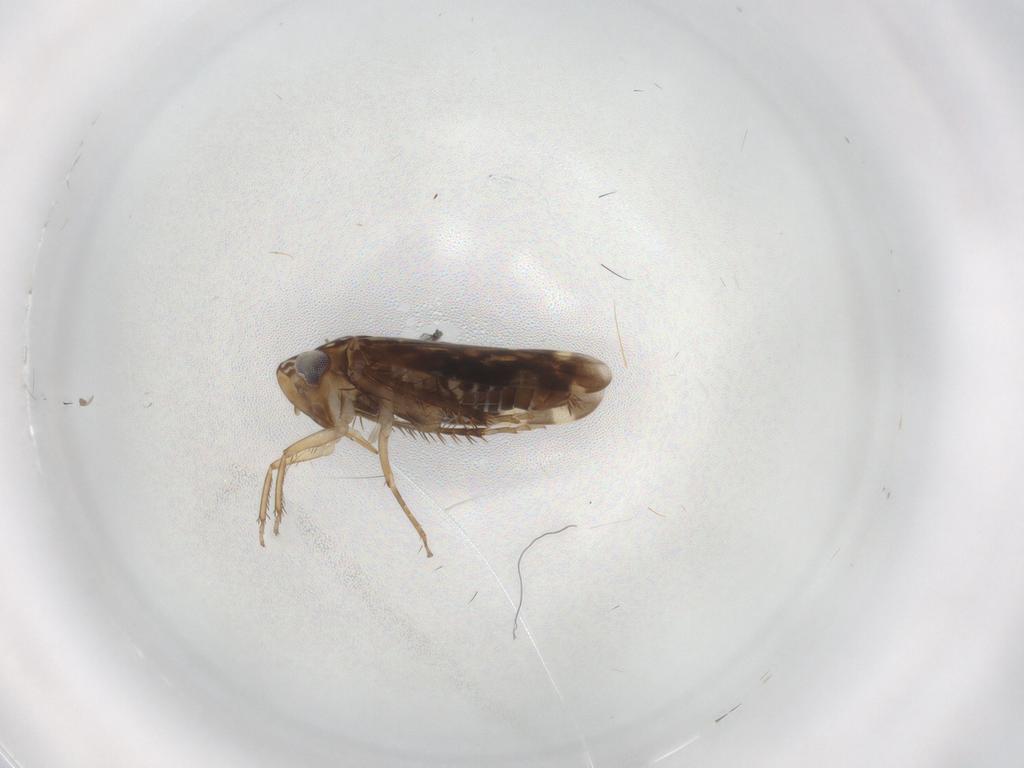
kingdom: Animalia
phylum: Arthropoda
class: Insecta
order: Hemiptera
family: Cicadellidae
